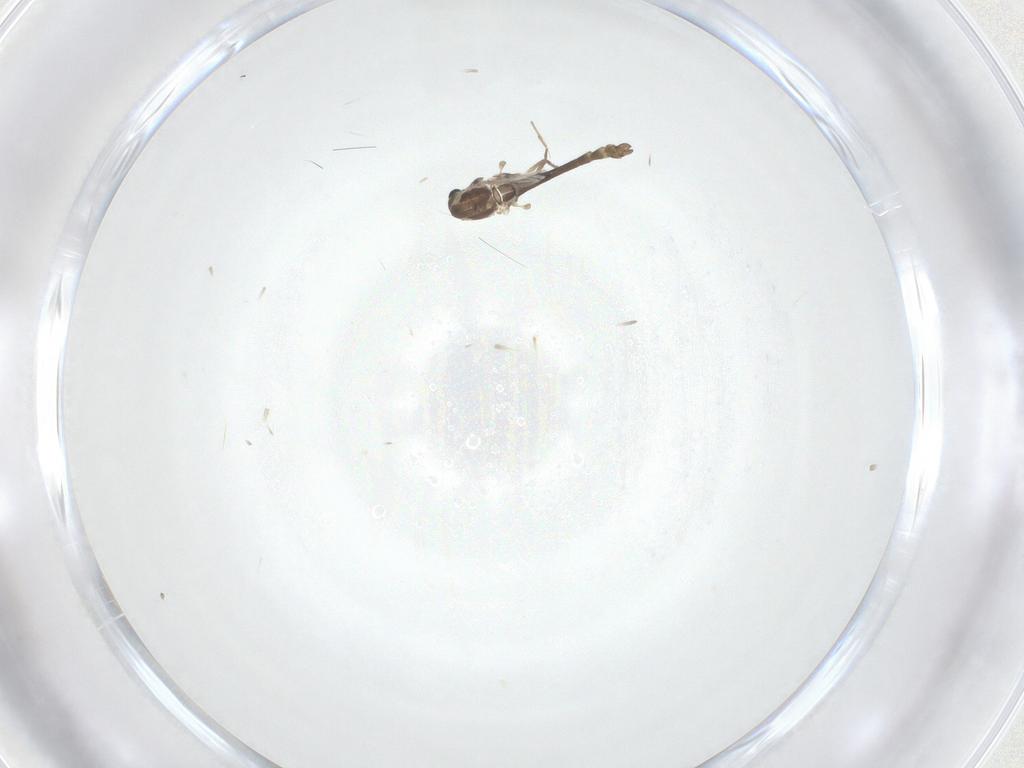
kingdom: Animalia
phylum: Arthropoda
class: Insecta
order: Diptera
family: Chironomidae
